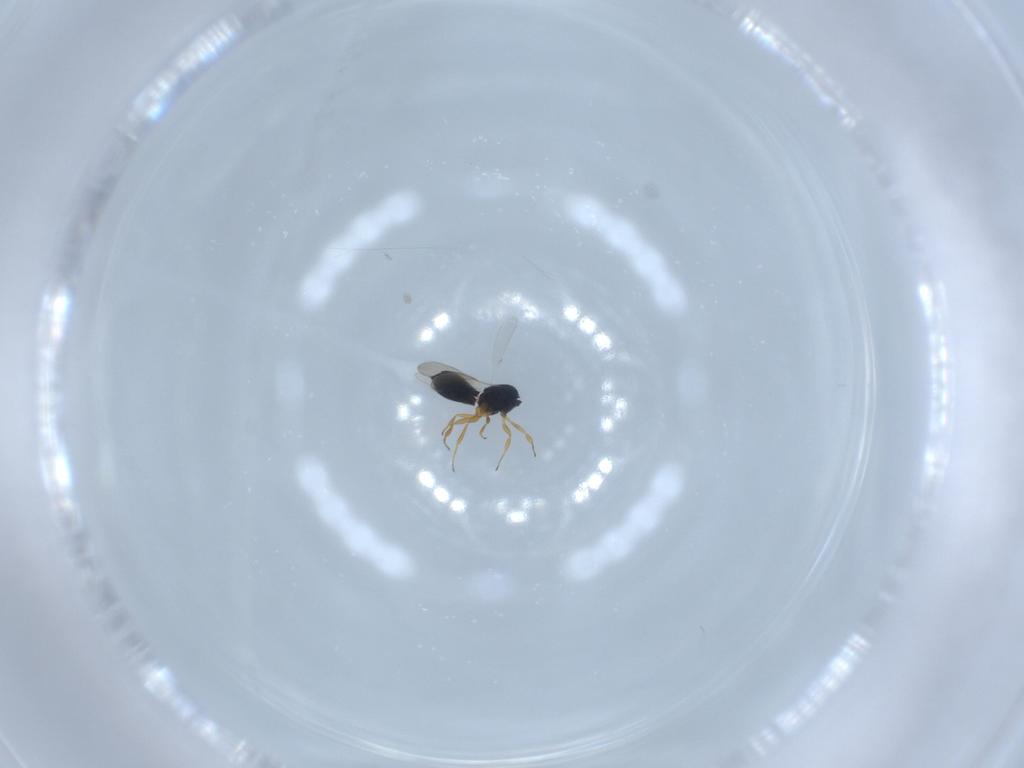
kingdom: Animalia
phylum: Arthropoda
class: Insecta
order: Hymenoptera
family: Scelionidae
